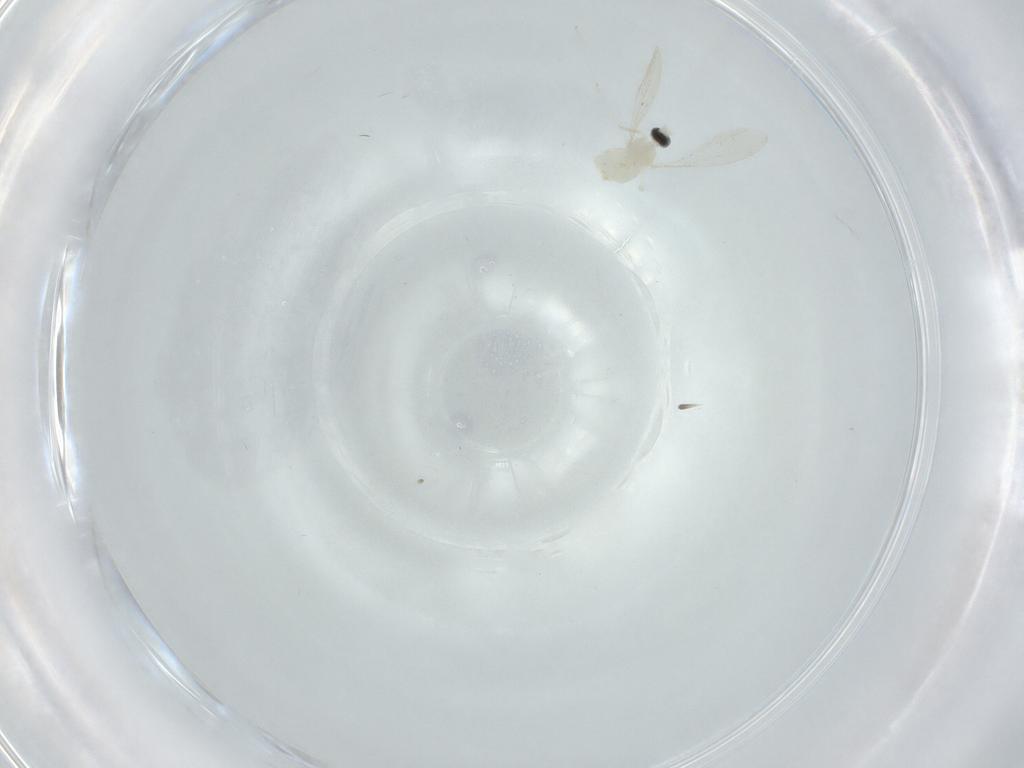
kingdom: Animalia
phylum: Arthropoda
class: Insecta
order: Diptera
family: Cecidomyiidae
